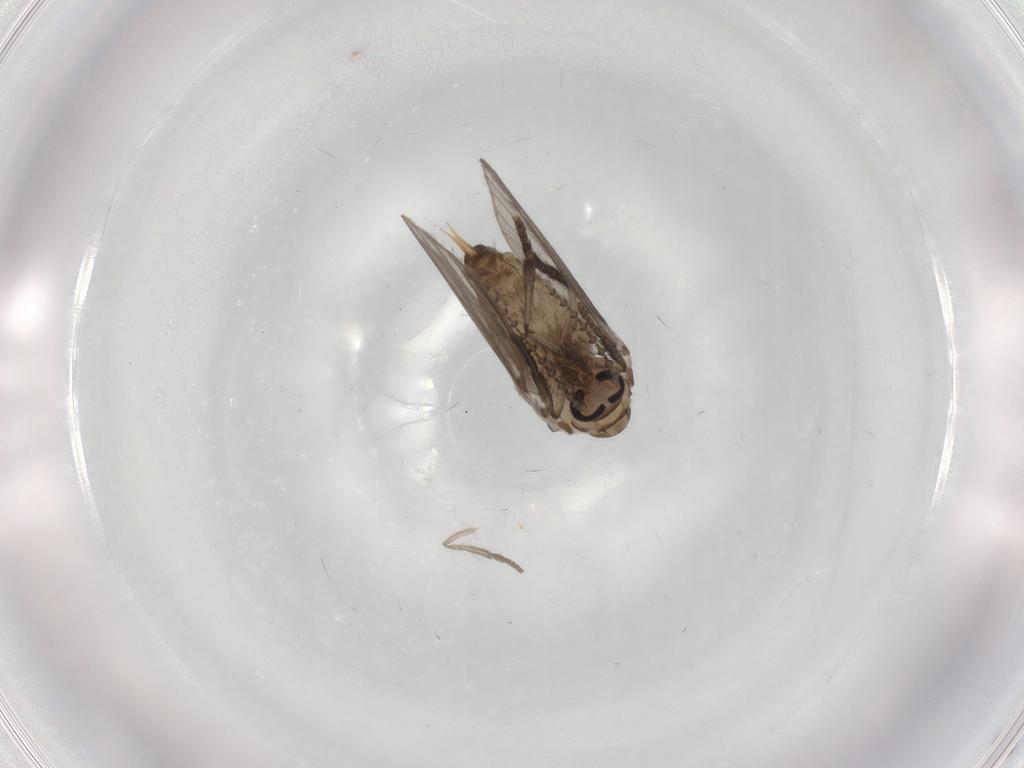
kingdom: Animalia
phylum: Arthropoda
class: Insecta
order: Diptera
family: Psychodidae
